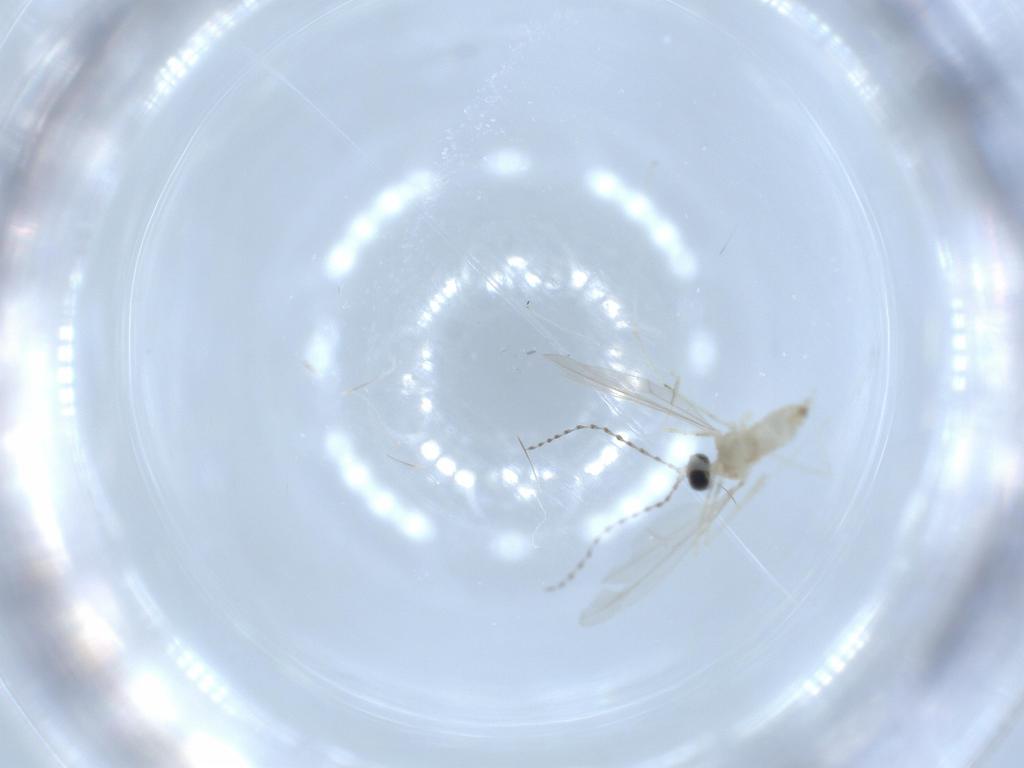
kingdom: Animalia
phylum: Arthropoda
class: Insecta
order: Diptera
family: Cecidomyiidae
